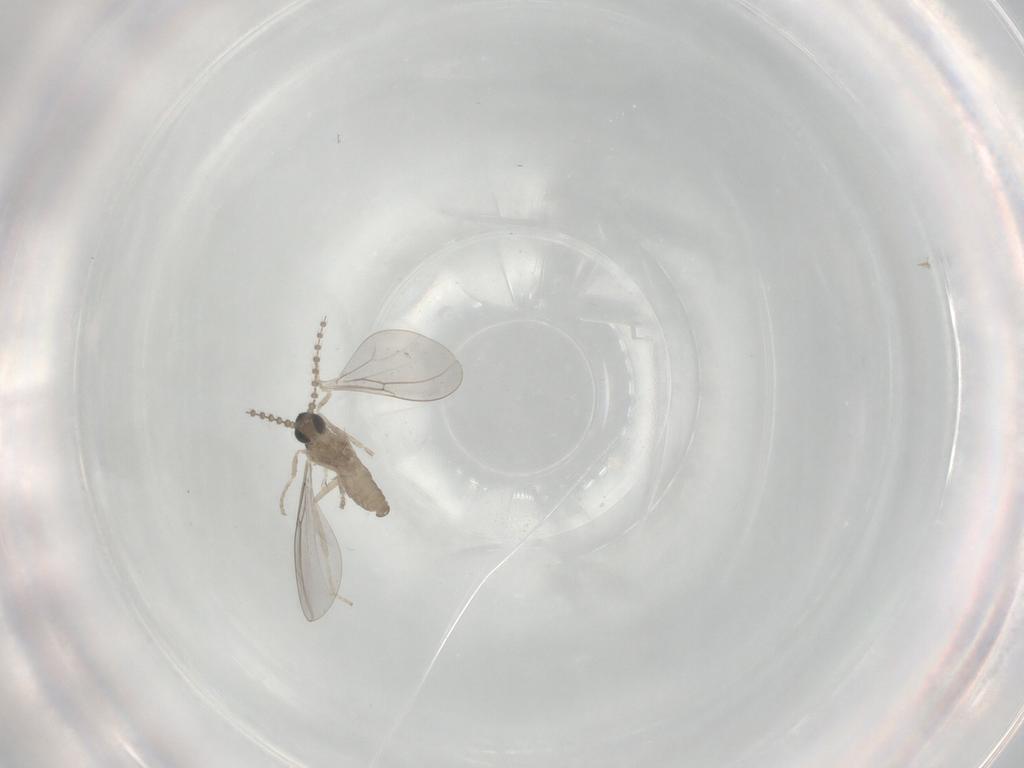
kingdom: Animalia
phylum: Arthropoda
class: Insecta
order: Diptera
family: Cecidomyiidae
